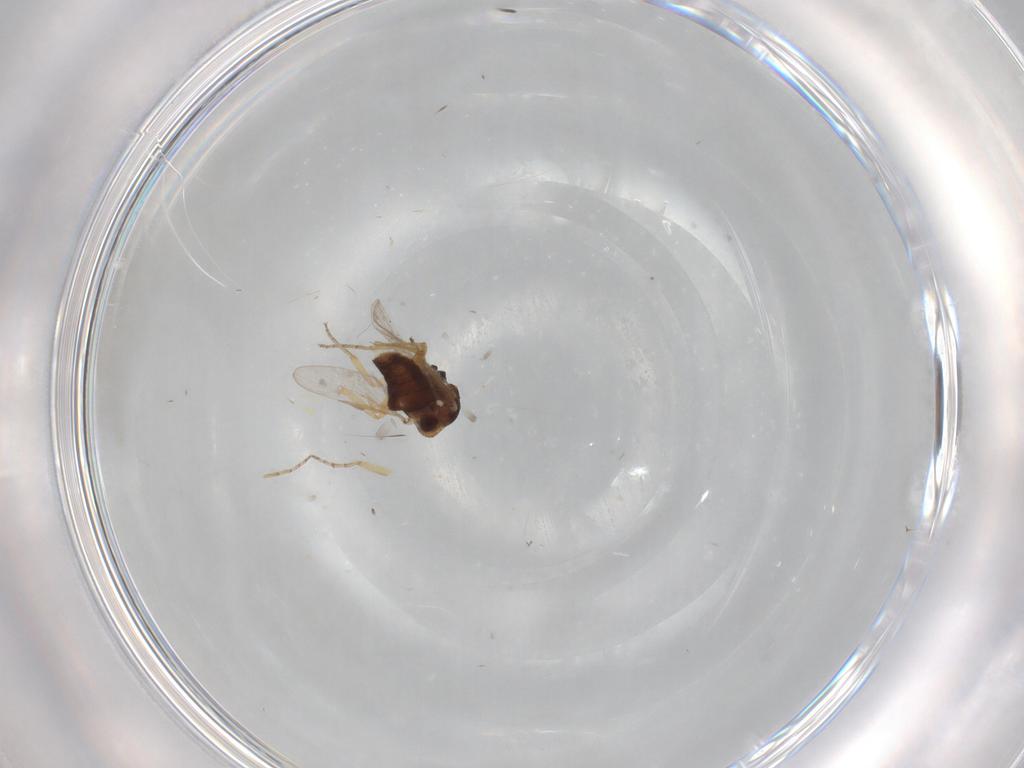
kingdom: Animalia
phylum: Arthropoda
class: Insecta
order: Diptera
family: Ceratopogonidae
